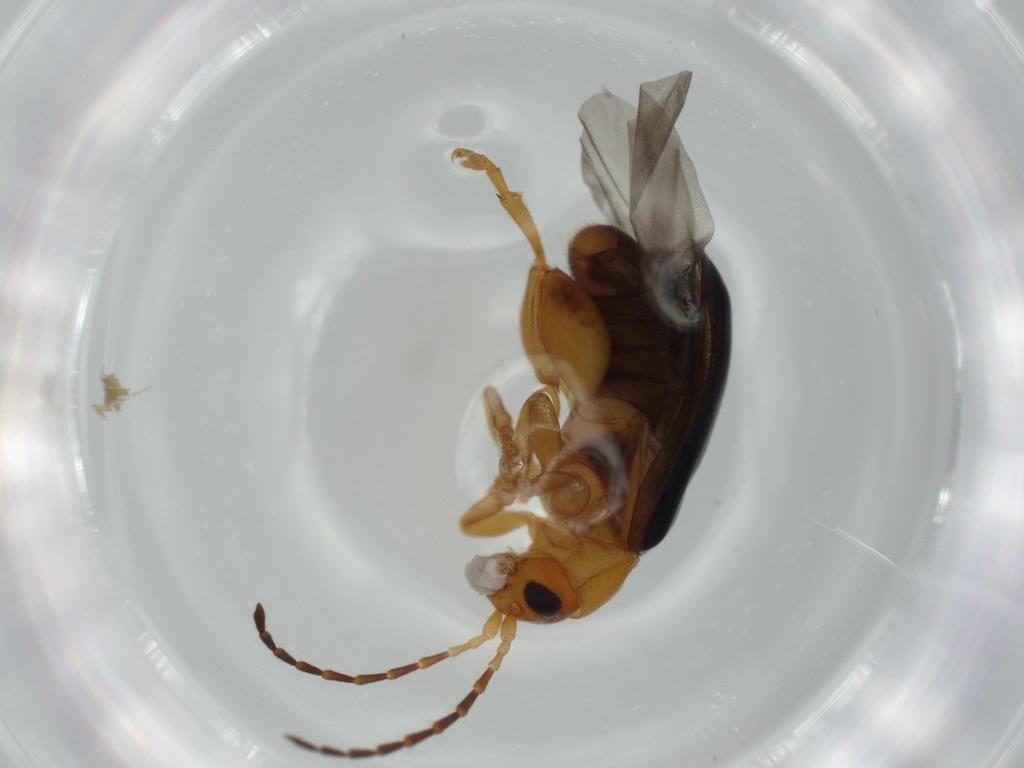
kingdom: Animalia
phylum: Arthropoda
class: Insecta
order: Coleoptera
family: Chrysomelidae
